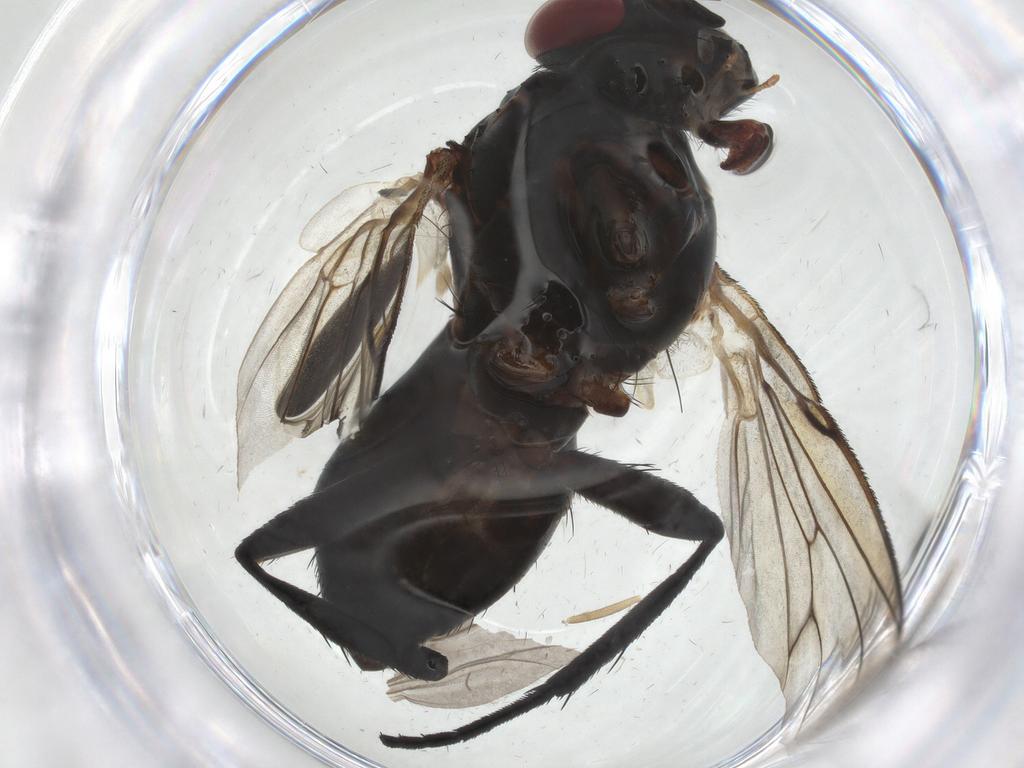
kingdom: Animalia
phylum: Arthropoda
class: Insecta
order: Diptera
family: Tachinidae
